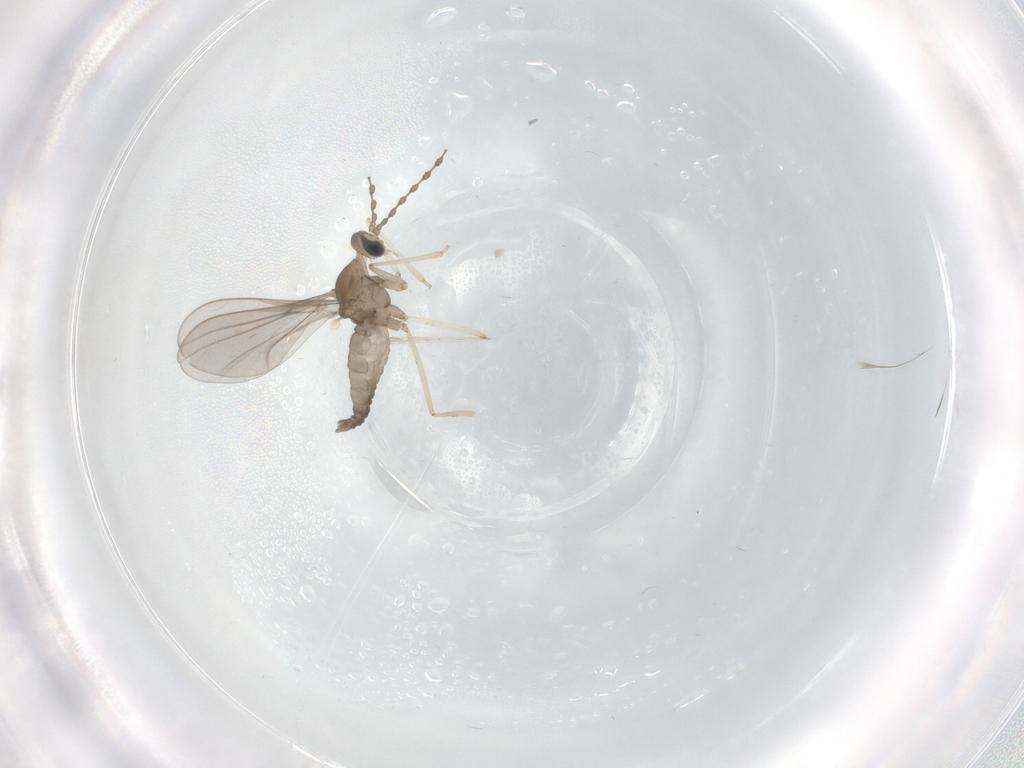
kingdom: Animalia
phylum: Arthropoda
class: Insecta
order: Diptera
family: Cecidomyiidae
